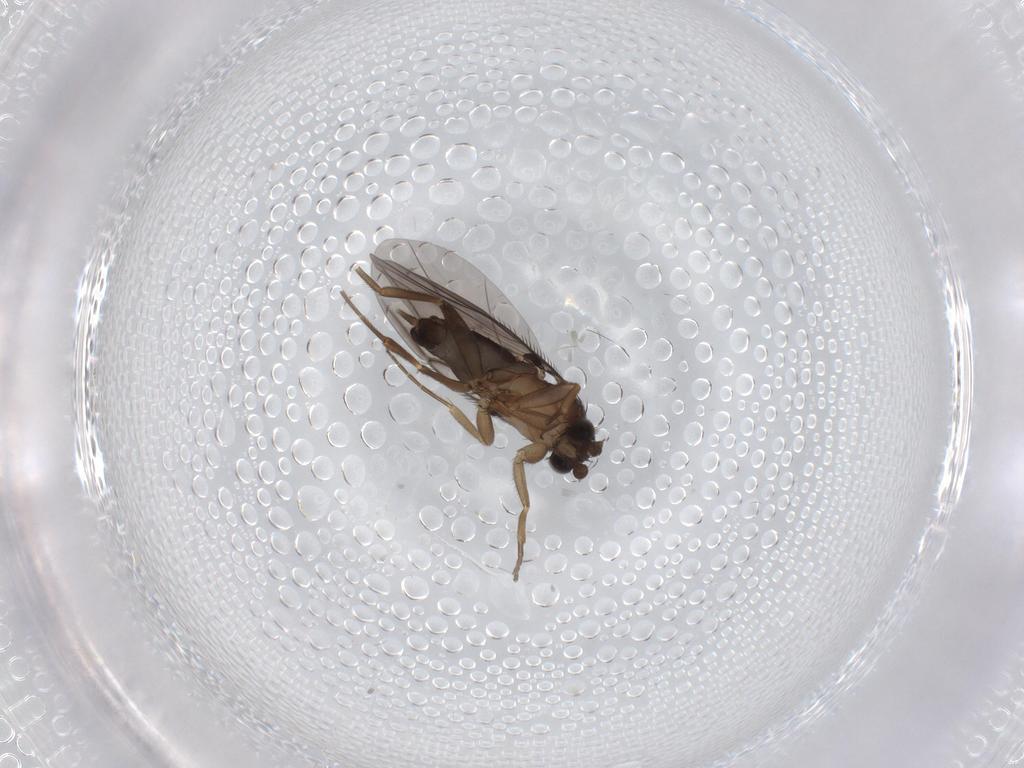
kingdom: Animalia
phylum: Arthropoda
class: Insecta
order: Diptera
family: Phoridae
